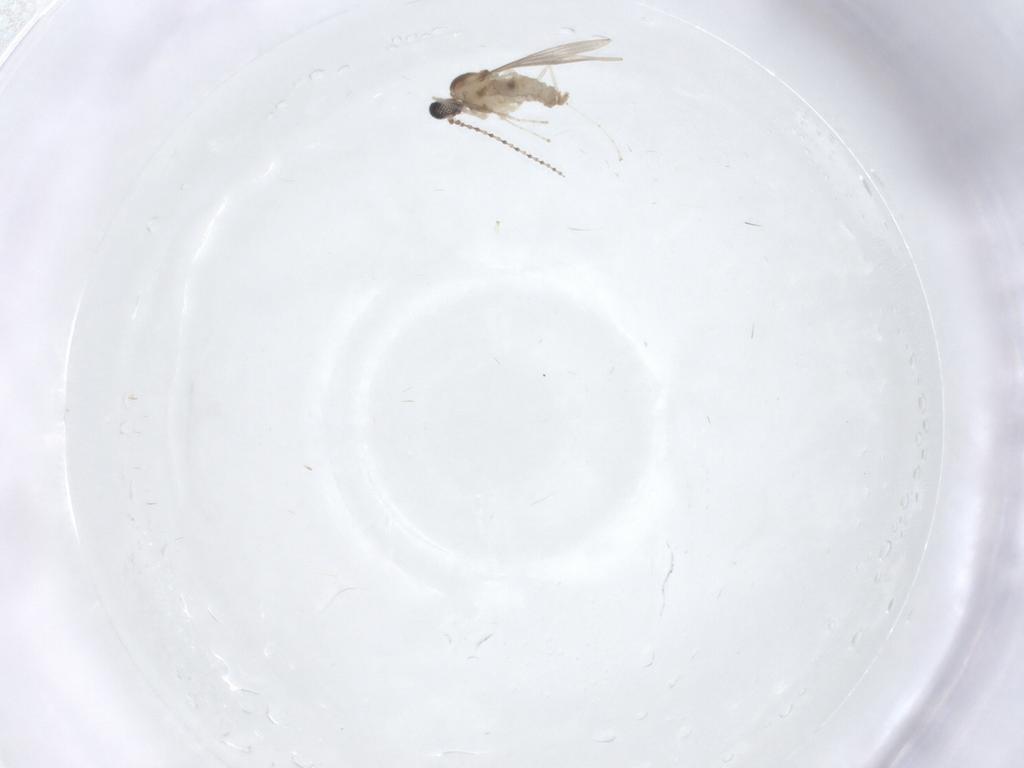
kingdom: Animalia
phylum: Arthropoda
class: Insecta
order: Diptera
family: Cecidomyiidae
